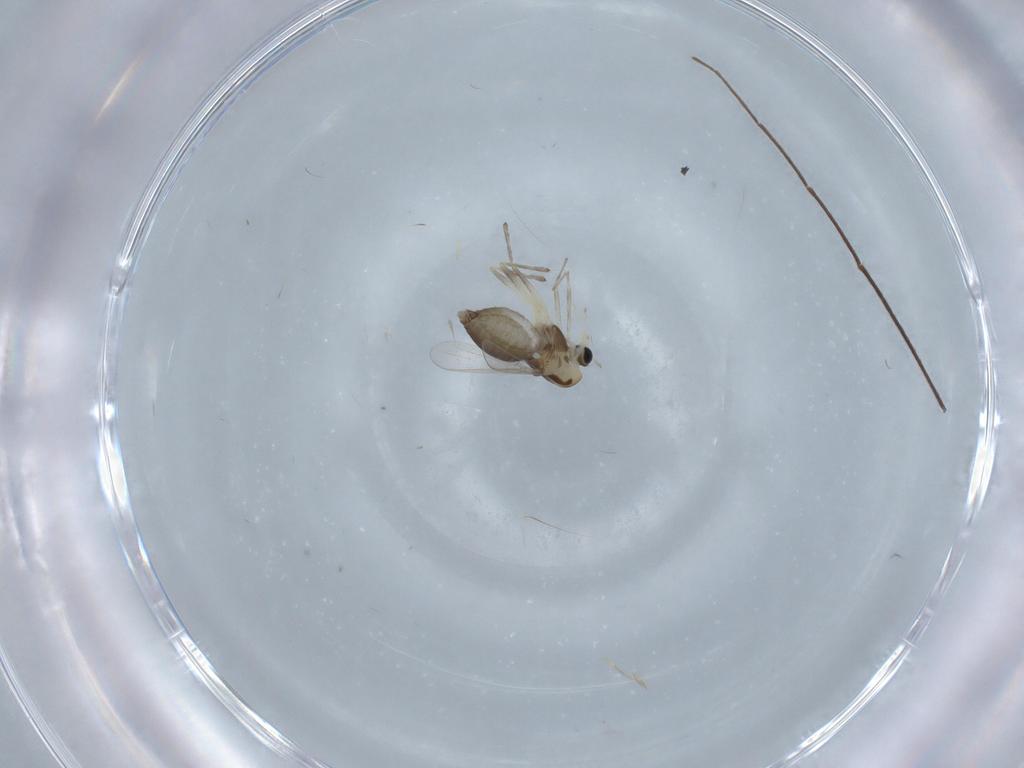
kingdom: Animalia
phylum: Arthropoda
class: Insecta
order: Diptera
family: Chironomidae
